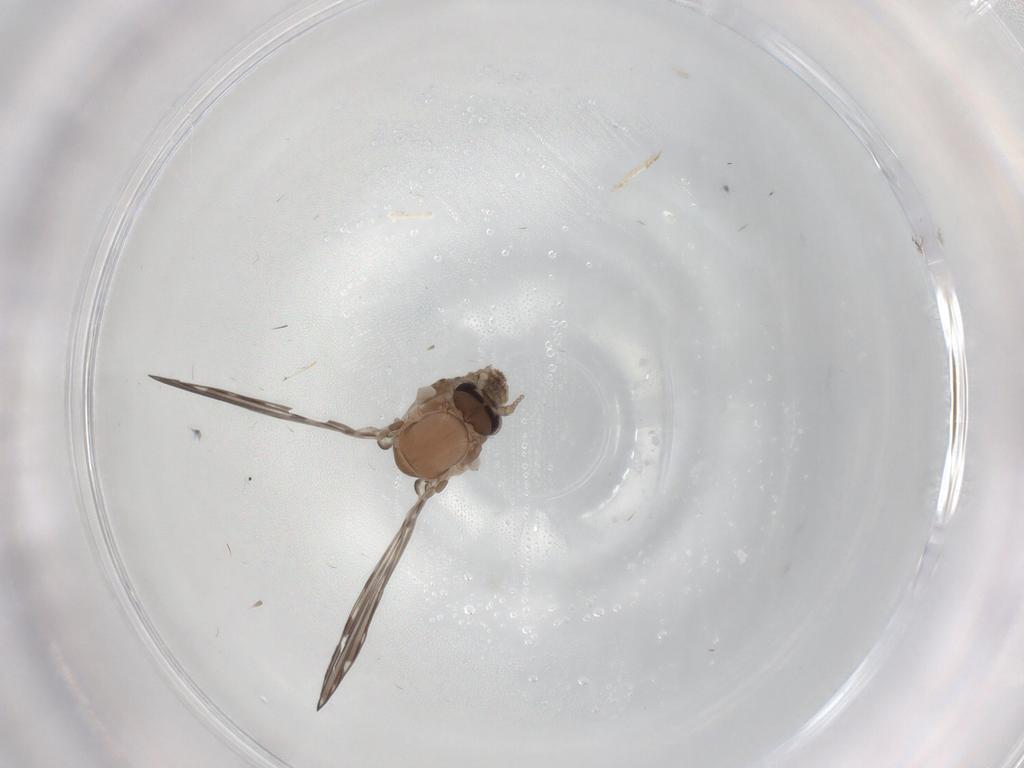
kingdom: Animalia
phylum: Arthropoda
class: Insecta
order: Diptera
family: Psychodidae
